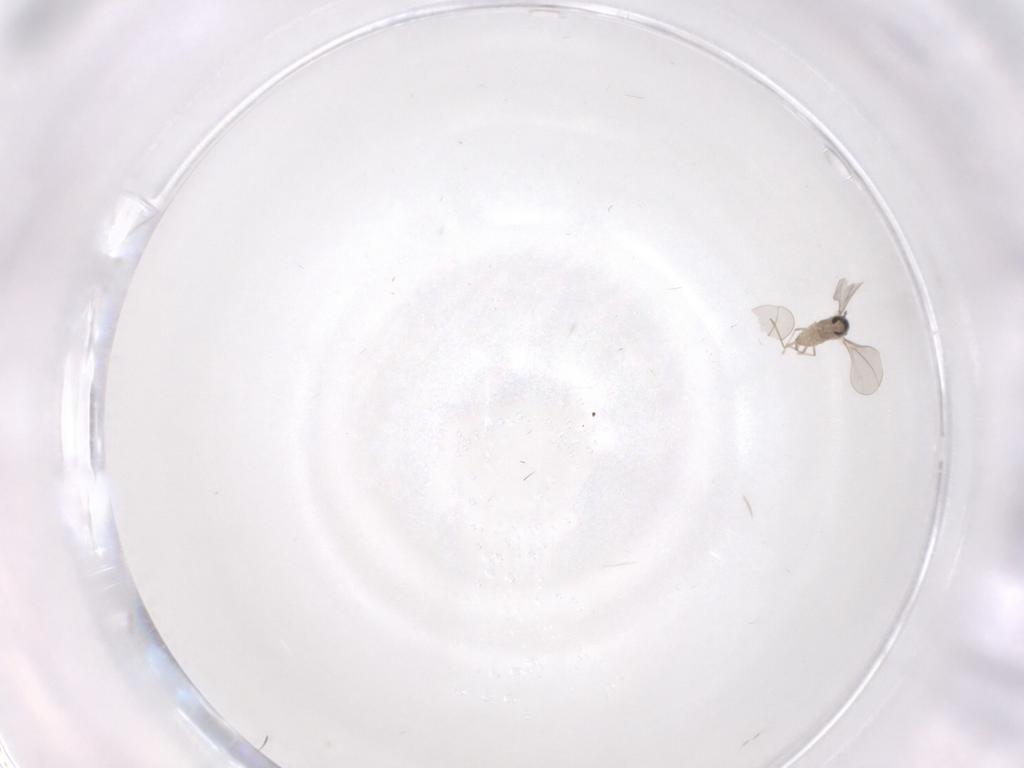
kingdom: Animalia
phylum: Arthropoda
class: Insecta
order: Diptera
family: Cecidomyiidae
